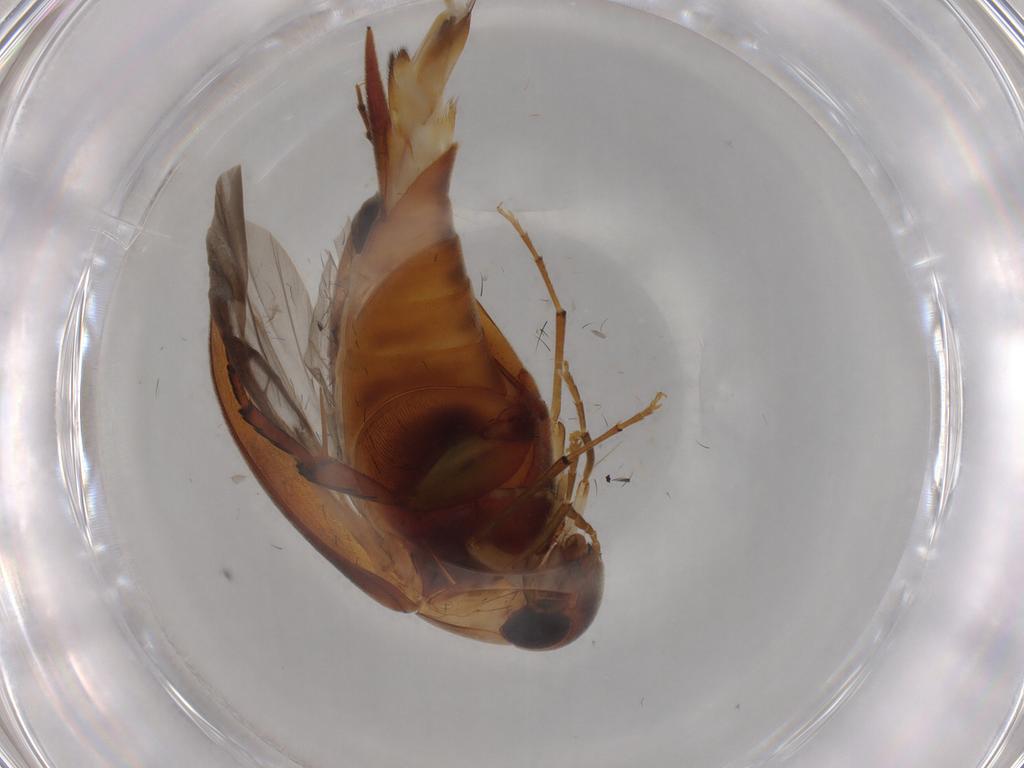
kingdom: Animalia
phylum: Arthropoda
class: Insecta
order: Coleoptera
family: Mordellidae
